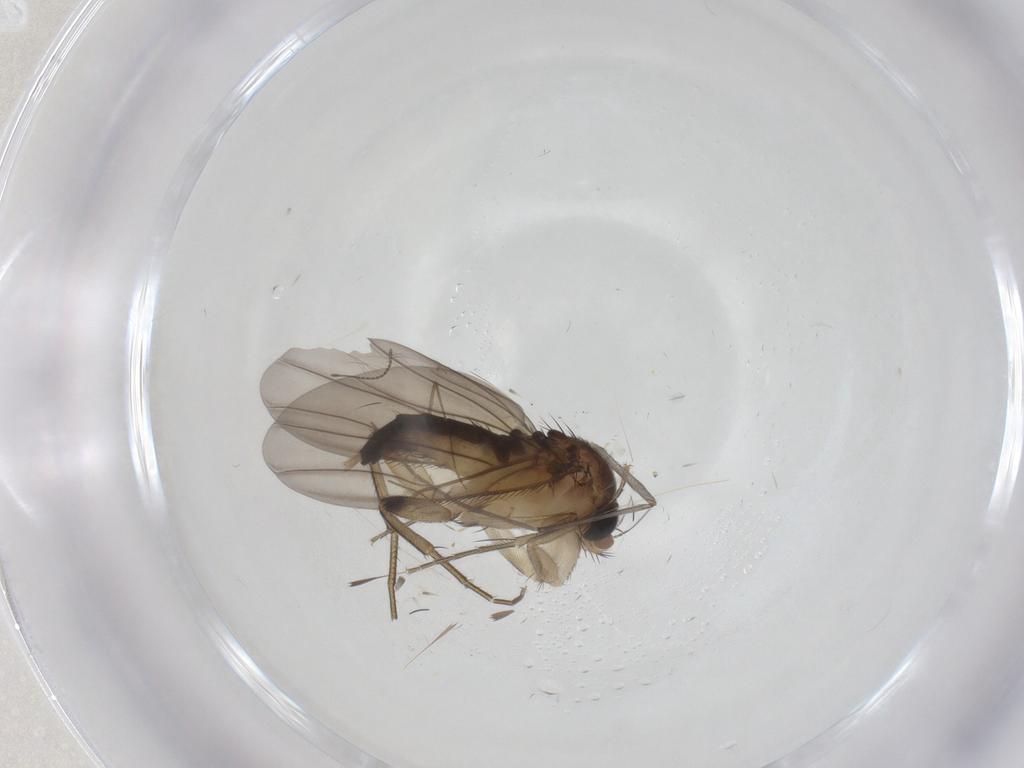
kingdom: Animalia
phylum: Arthropoda
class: Insecta
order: Diptera
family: Phoridae
